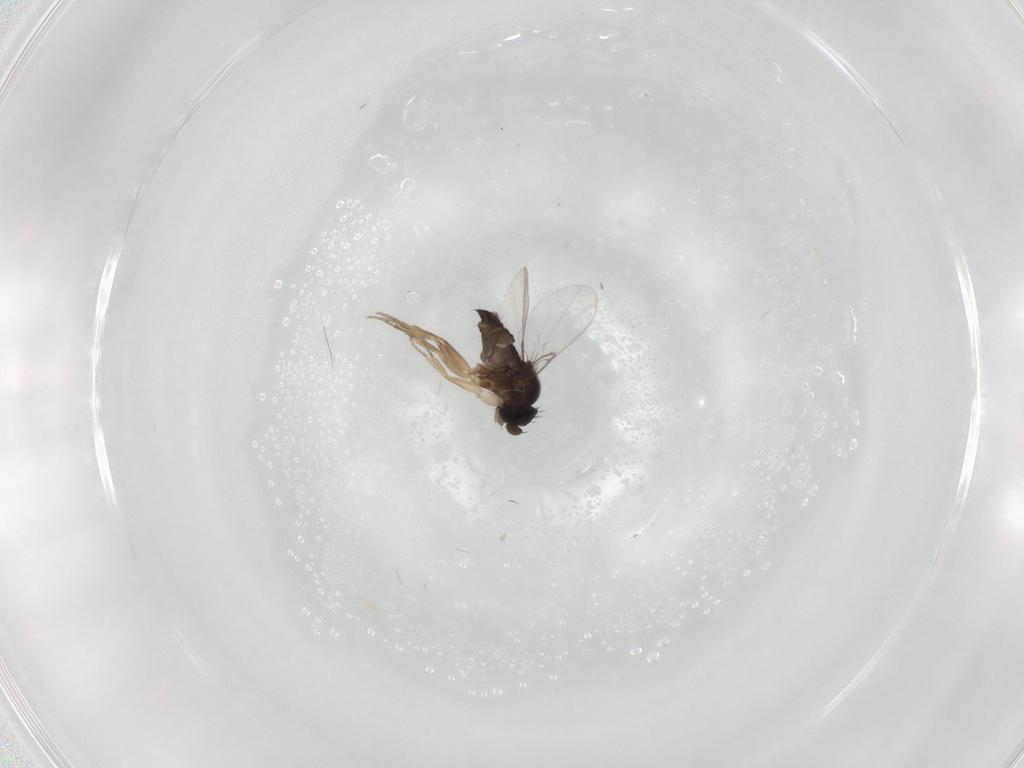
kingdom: Animalia
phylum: Arthropoda
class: Insecta
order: Diptera
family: Phoridae
